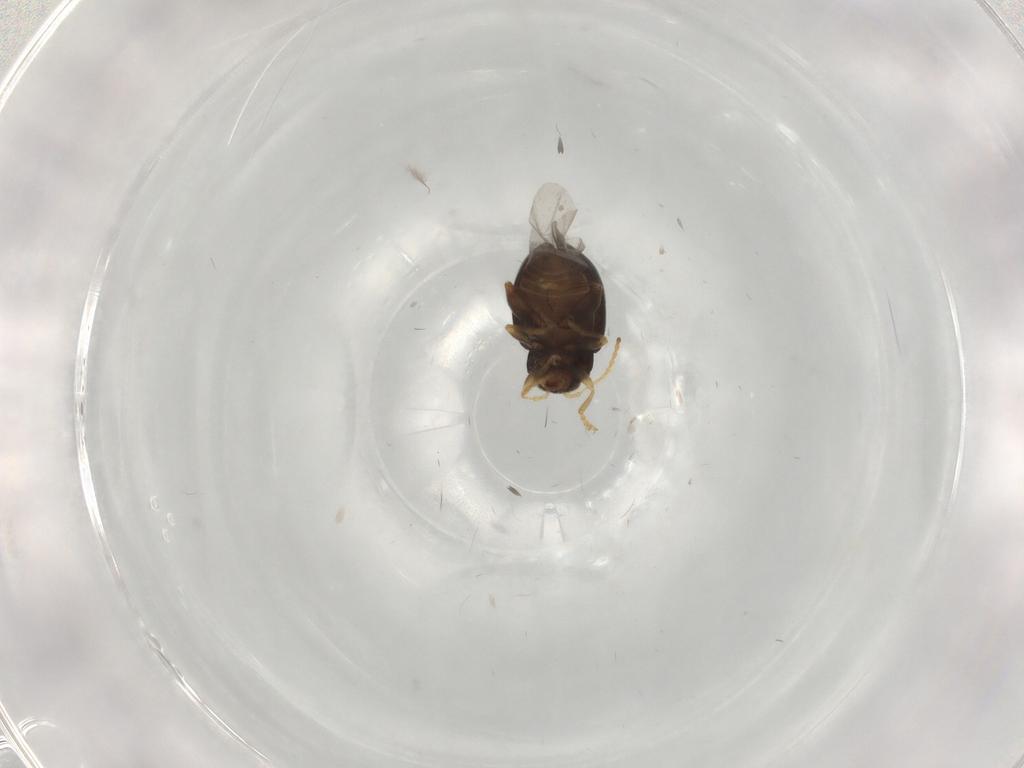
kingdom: Animalia
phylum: Arthropoda
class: Insecta
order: Coleoptera
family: Chrysomelidae
